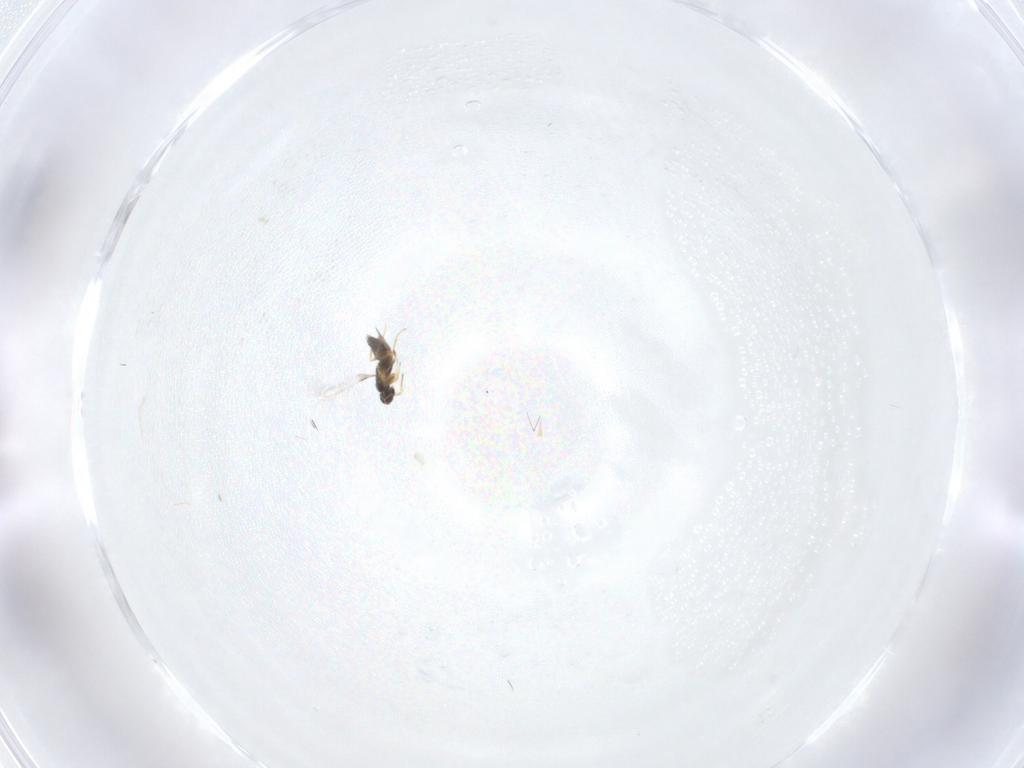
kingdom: Animalia
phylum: Arthropoda
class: Insecta
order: Hymenoptera
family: Mymaridae
